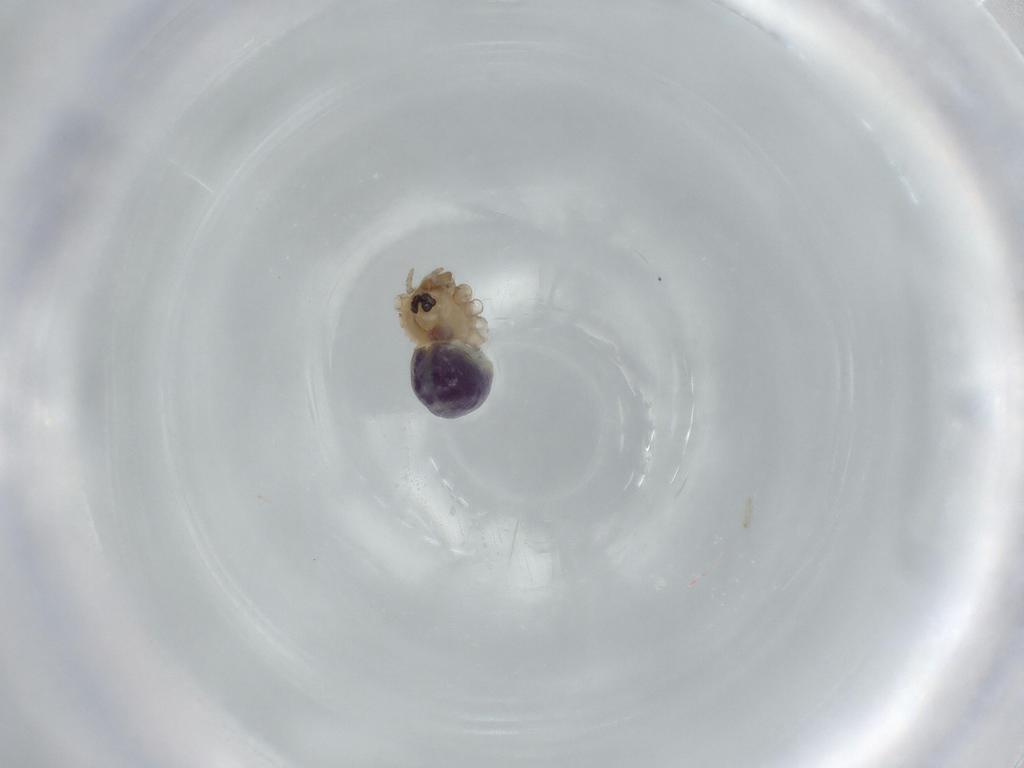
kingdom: Animalia
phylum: Arthropoda
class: Arachnida
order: Araneae
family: Pholcidae
